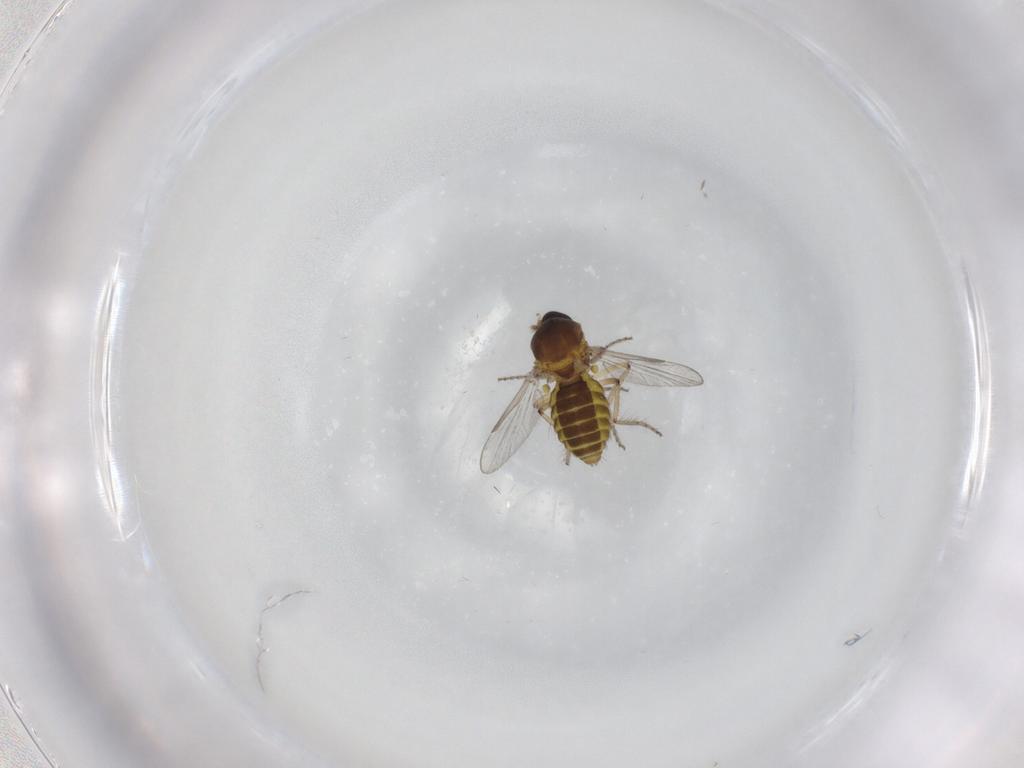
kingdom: Animalia
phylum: Arthropoda
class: Insecta
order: Diptera
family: Ceratopogonidae
